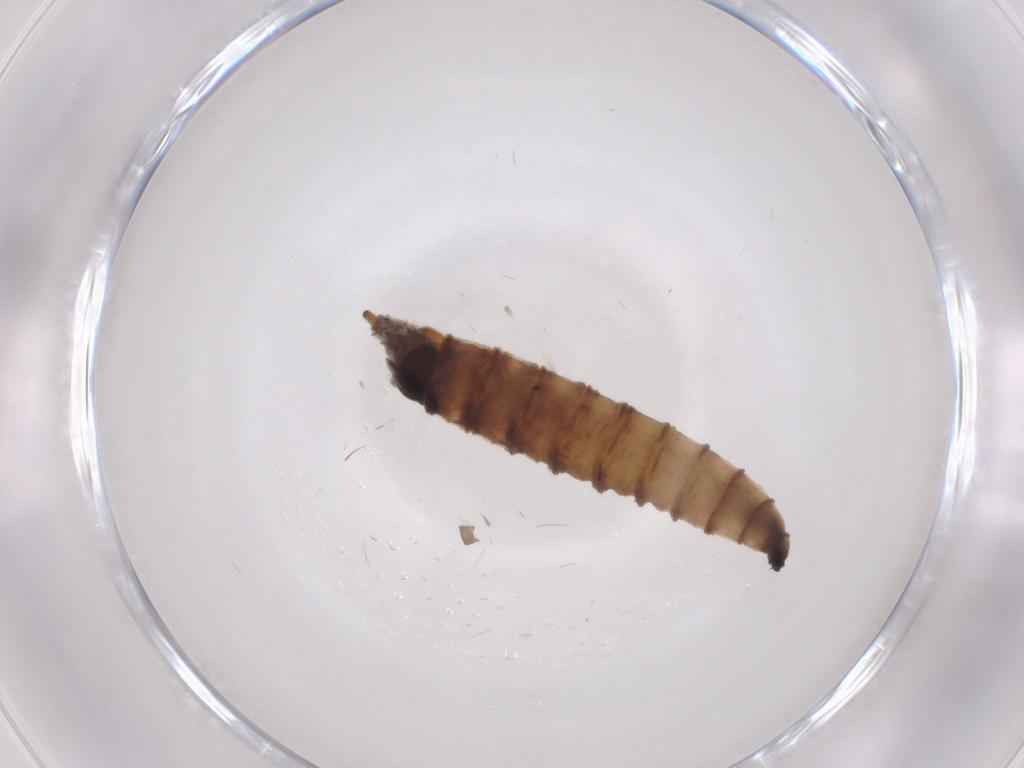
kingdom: Animalia
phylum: Arthropoda
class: Insecta
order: Diptera
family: Drosophilidae
